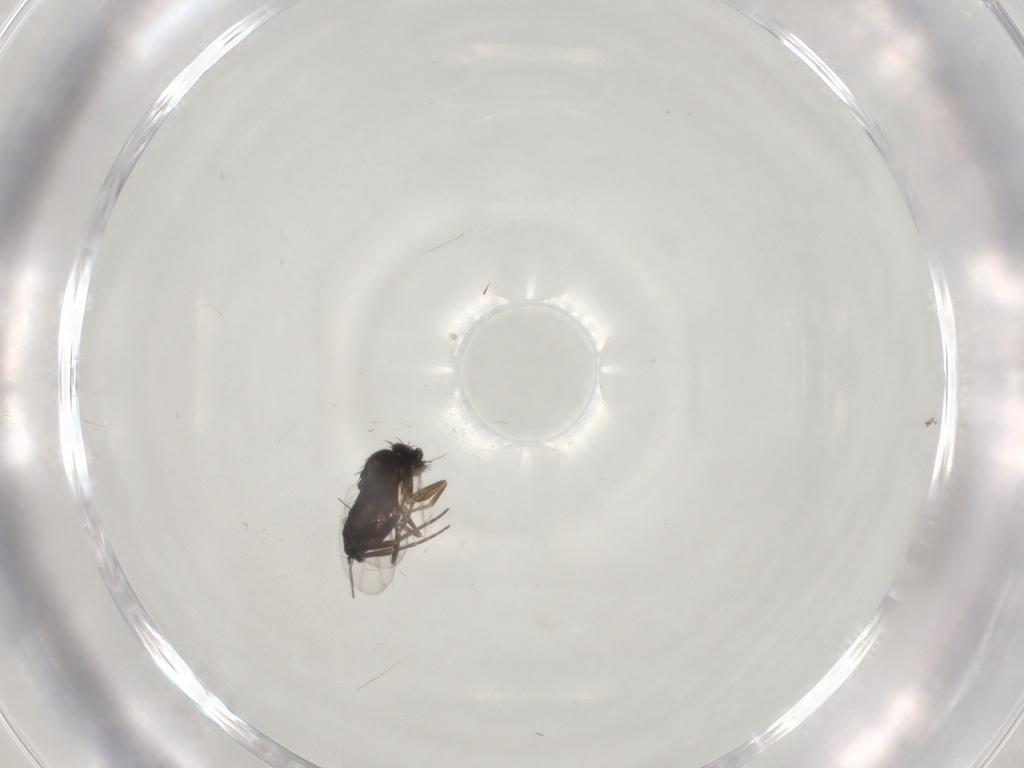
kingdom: Animalia
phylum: Arthropoda
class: Insecta
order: Diptera
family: Phoridae
